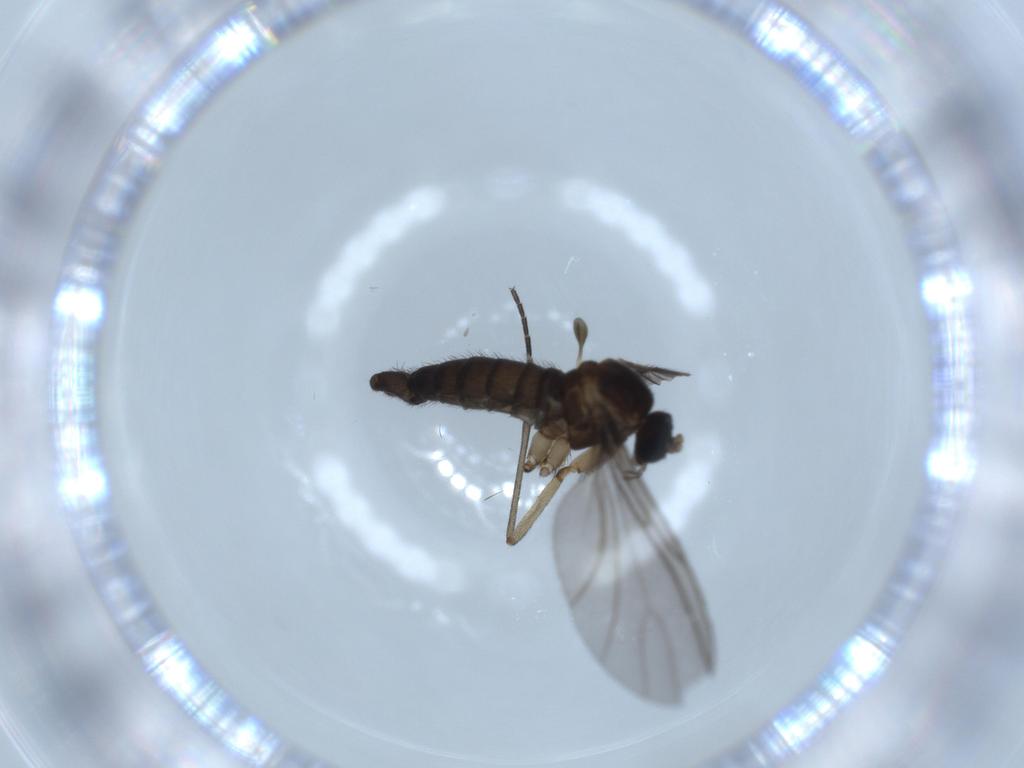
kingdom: Animalia
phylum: Arthropoda
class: Insecta
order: Diptera
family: Sciaridae
